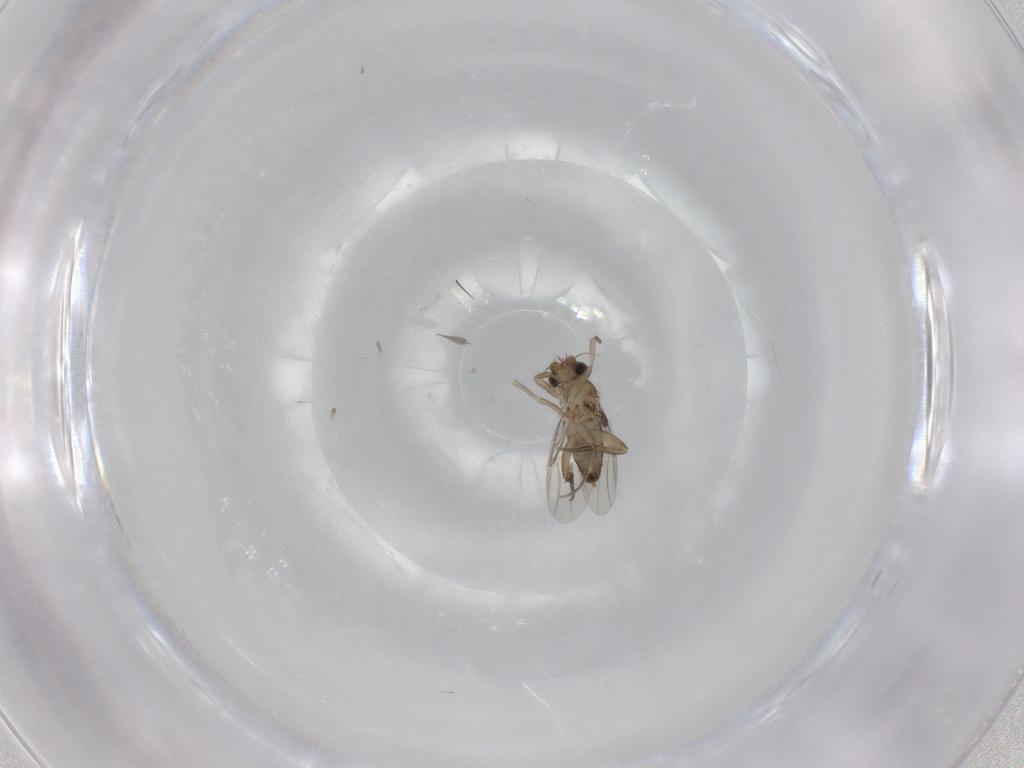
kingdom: Animalia
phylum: Arthropoda
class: Insecta
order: Diptera
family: Phoridae
